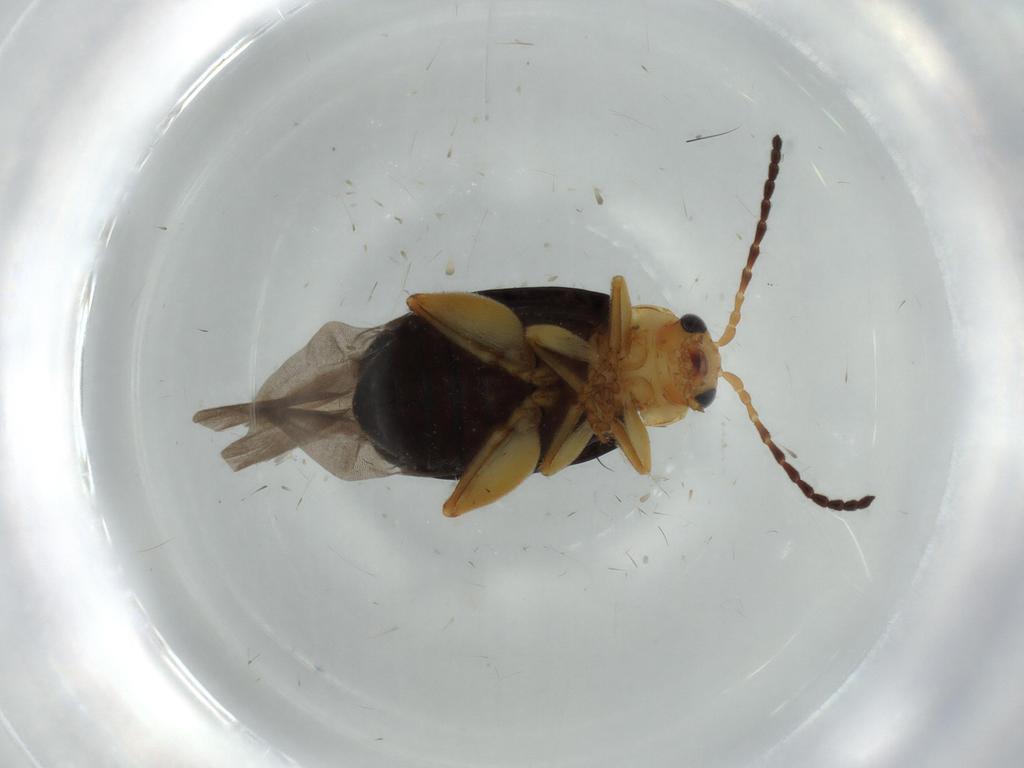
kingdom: Animalia
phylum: Arthropoda
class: Insecta
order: Coleoptera
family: Chrysomelidae
